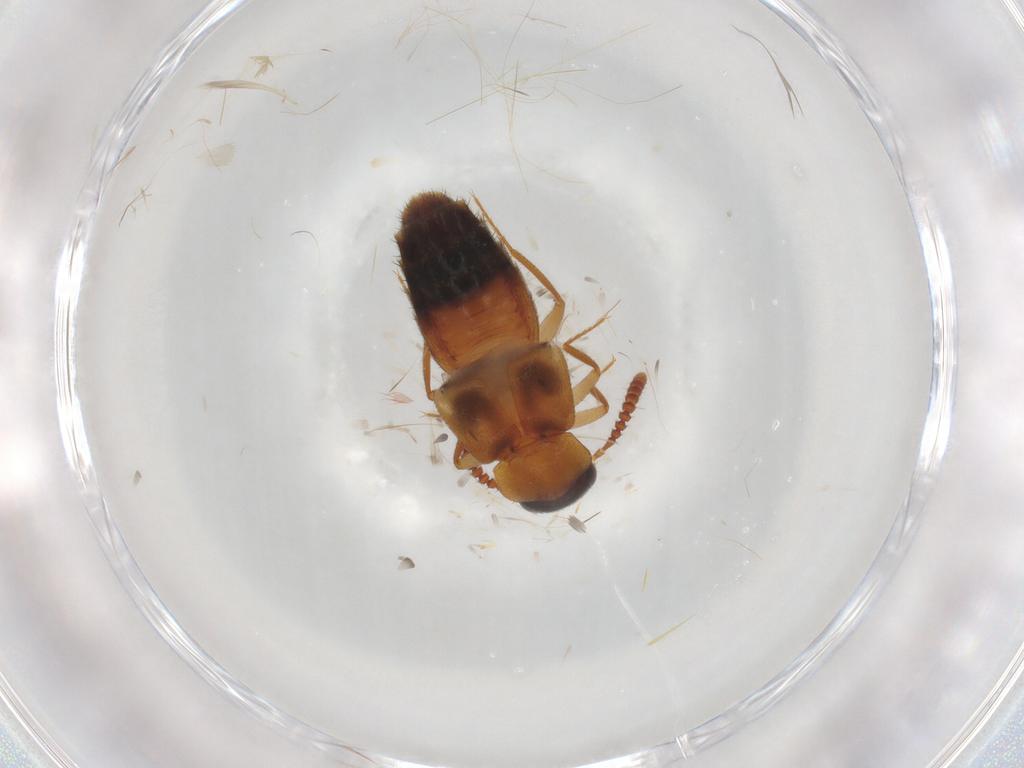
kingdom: Animalia
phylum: Arthropoda
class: Insecta
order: Coleoptera
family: Staphylinidae
